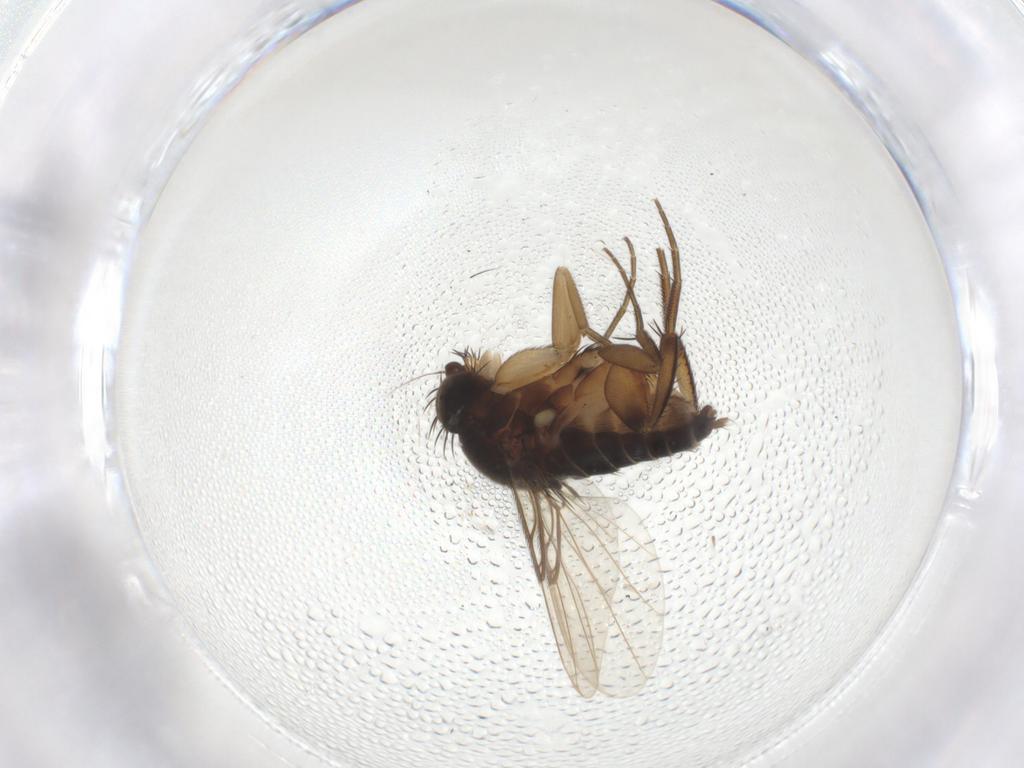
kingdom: Animalia
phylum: Arthropoda
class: Insecta
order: Diptera
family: Phoridae
